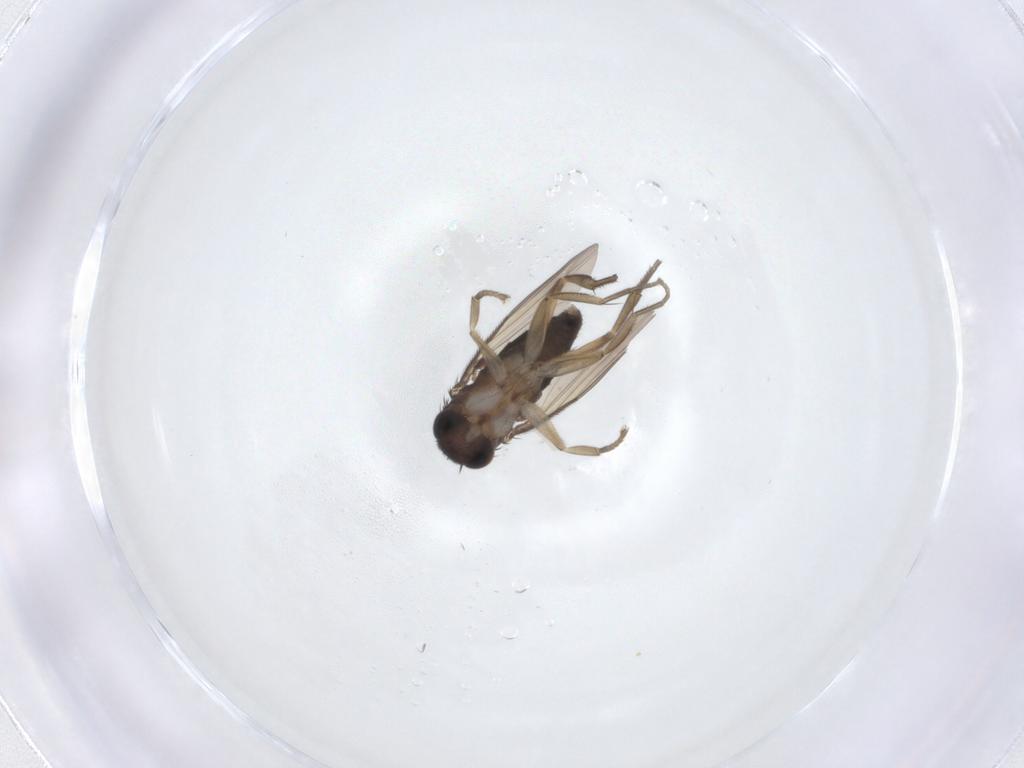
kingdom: Animalia
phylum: Arthropoda
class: Insecta
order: Diptera
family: Phoridae
